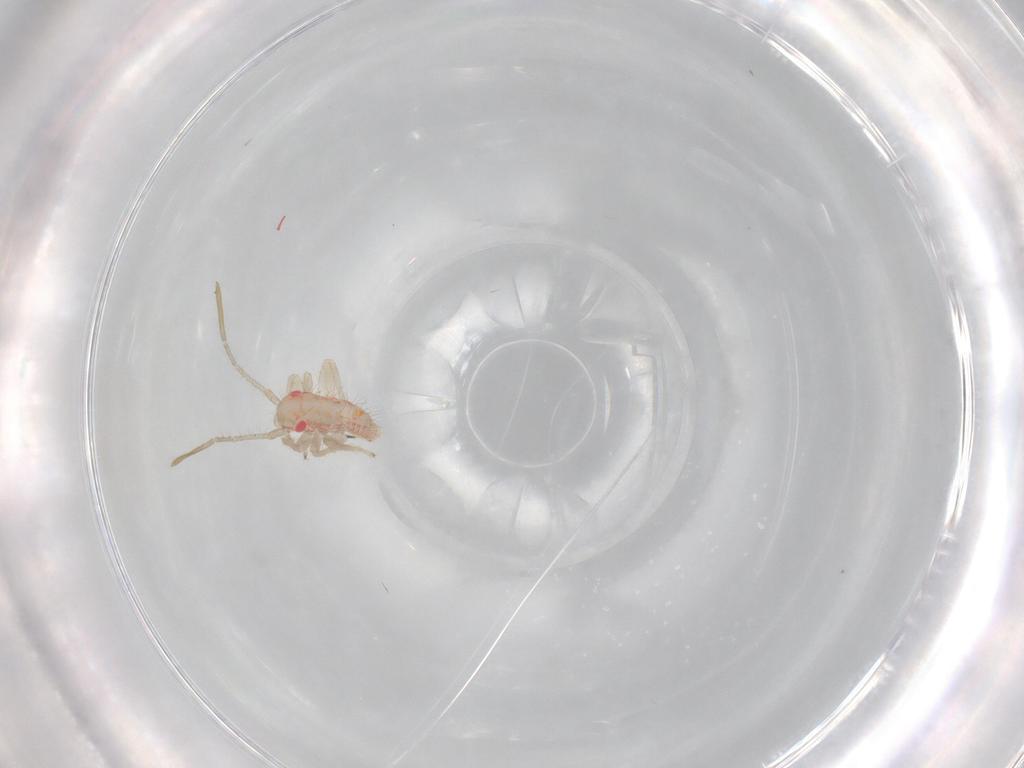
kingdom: Animalia
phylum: Arthropoda
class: Insecta
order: Hemiptera
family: Miridae
